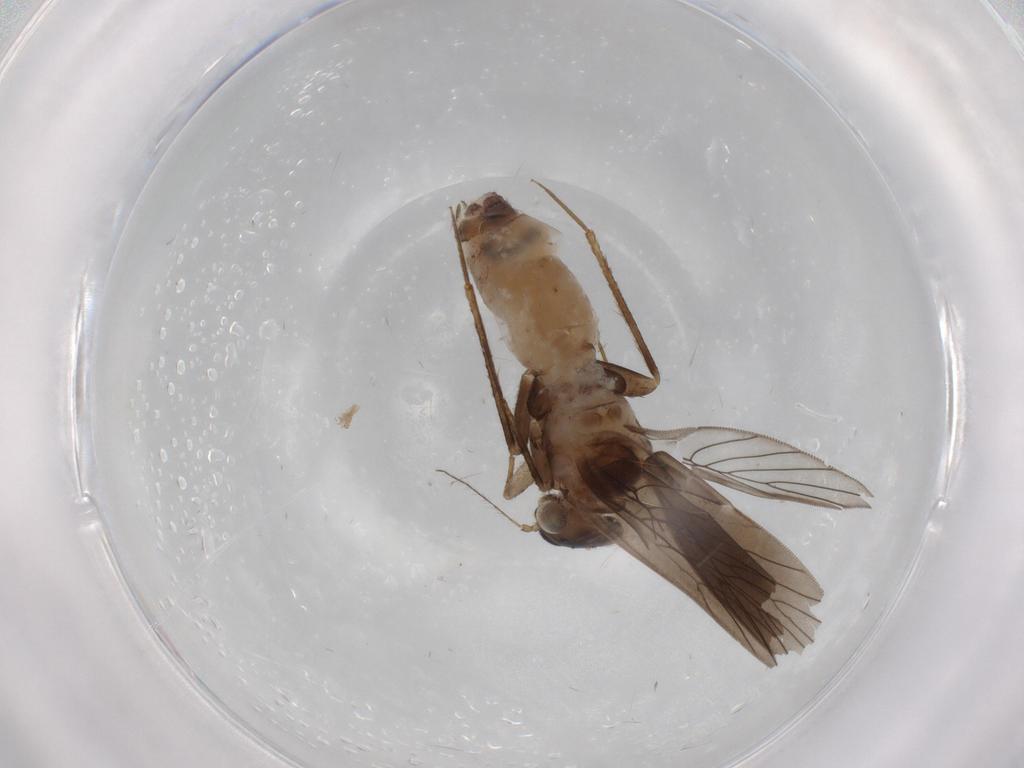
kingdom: Animalia
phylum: Arthropoda
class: Insecta
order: Psocodea
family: Lepidopsocidae
